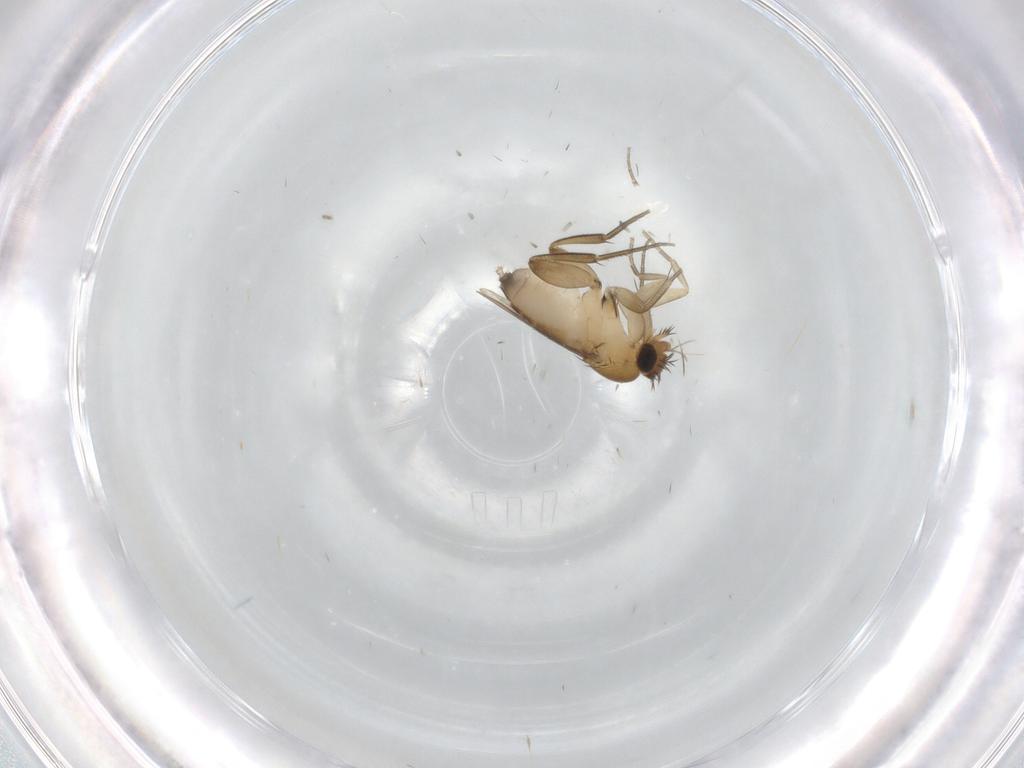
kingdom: Animalia
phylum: Arthropoda
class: Insecta
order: Diptera
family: Phoridae
